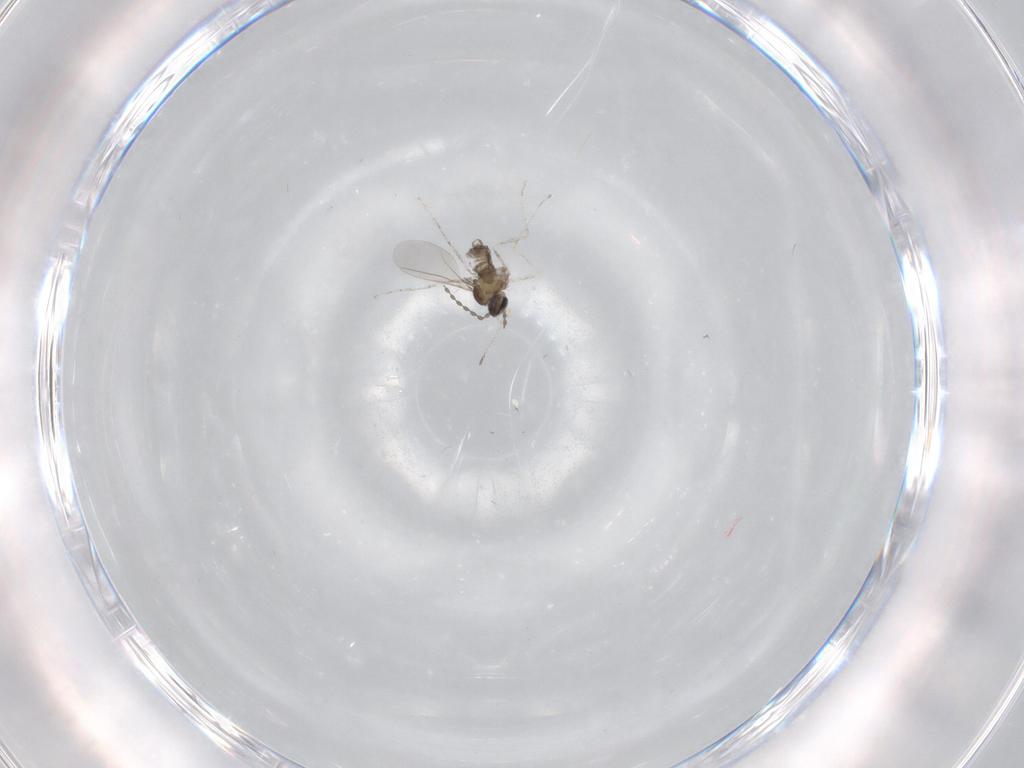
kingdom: Animalia
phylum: Arthropoda
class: Insecta
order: Diptera
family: Cecidomyiidae
